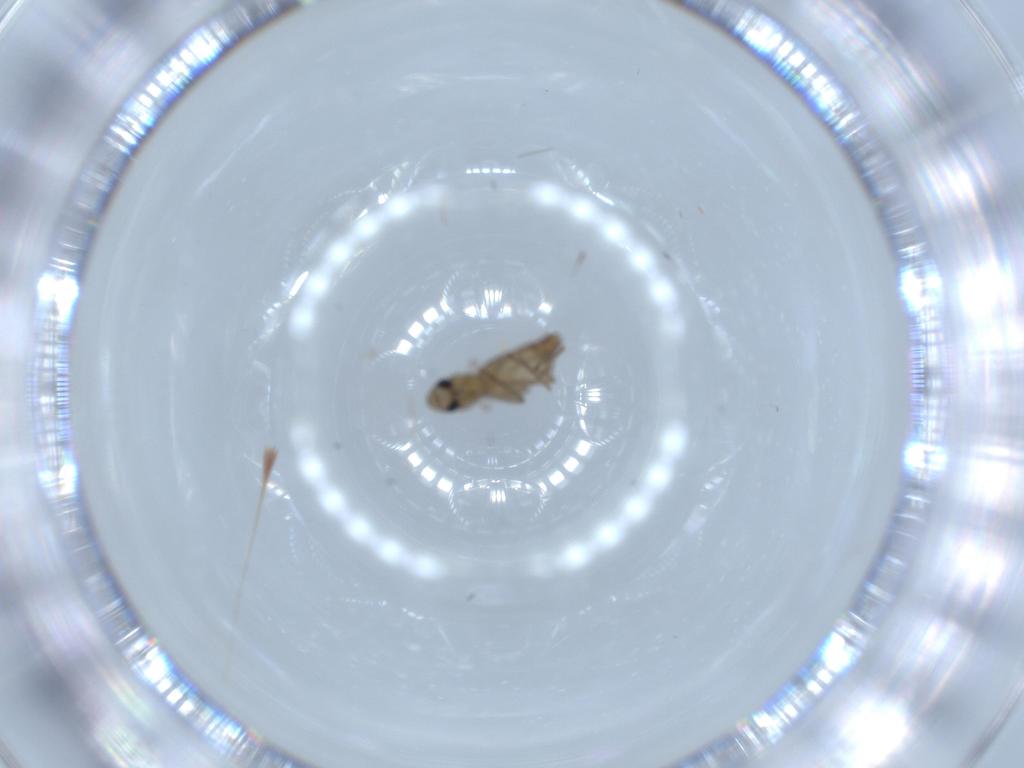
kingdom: Animalia
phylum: Arthropoda
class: Insecta
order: Diptera
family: Chironomidae
